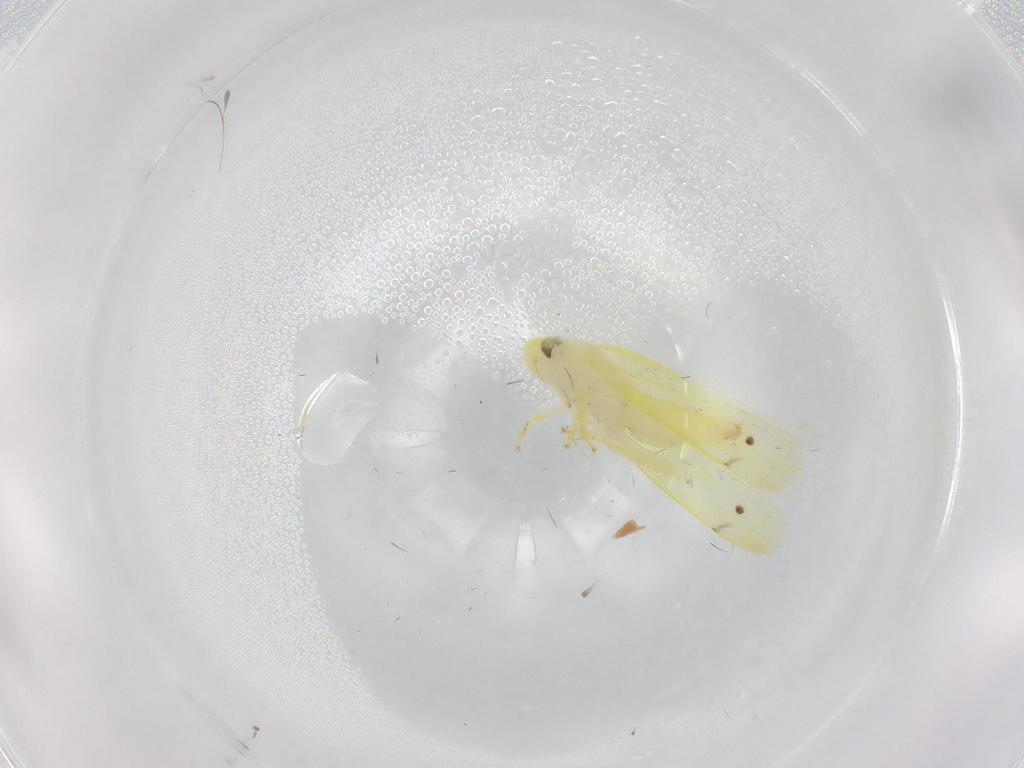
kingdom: Animalia
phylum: Arthropoda
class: Insecta
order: Hemiptera
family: Cicadellidae
